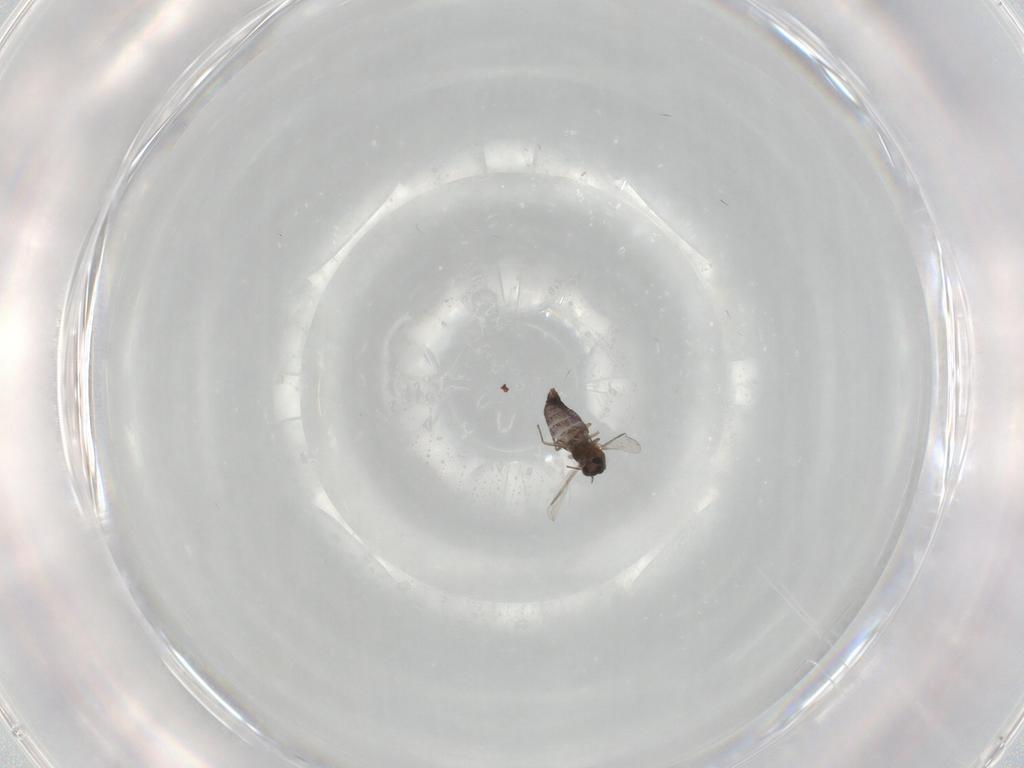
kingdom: Animalia
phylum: Arthropoda
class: Insecta
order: Diptera
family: Chironomidae
